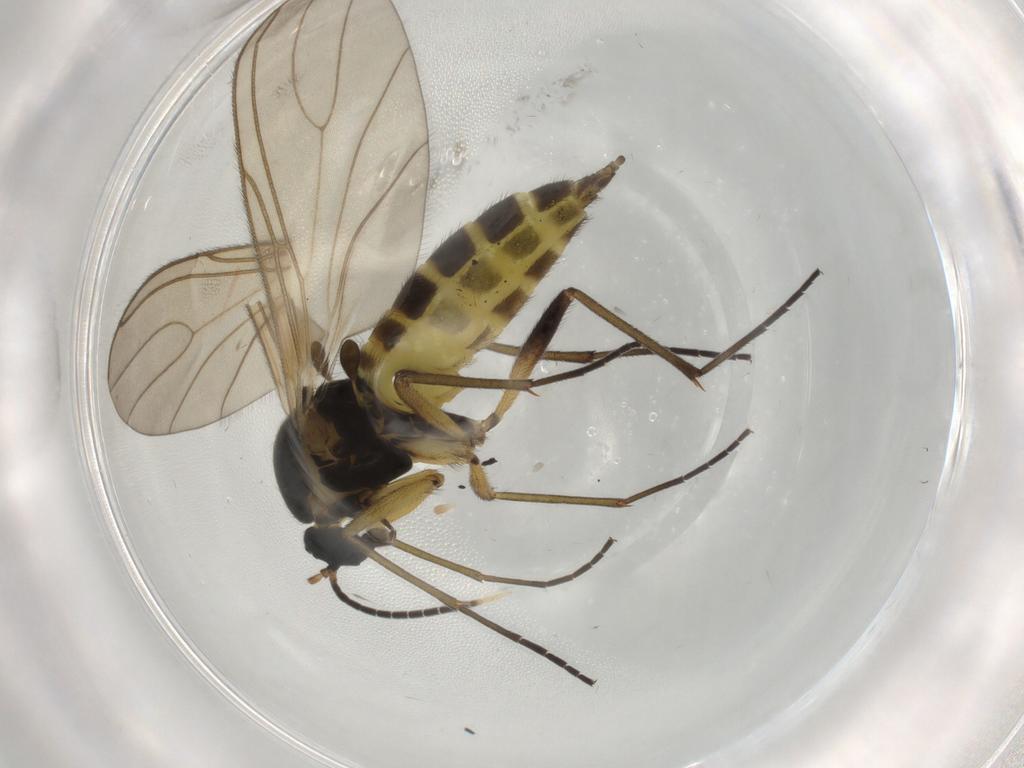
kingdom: Animalia
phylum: Arthropoda
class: Insecta
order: Diptera
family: Sciaridae
